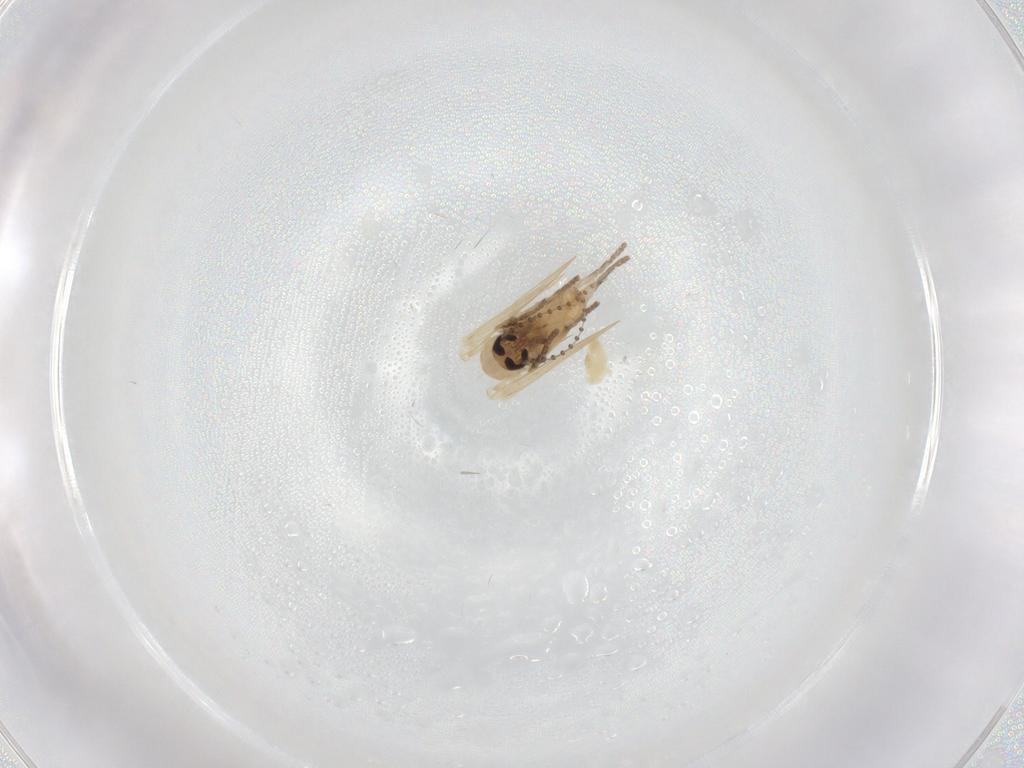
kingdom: Animalia
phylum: Arthropoda
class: Insecta
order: Diptera
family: Psychodidae
